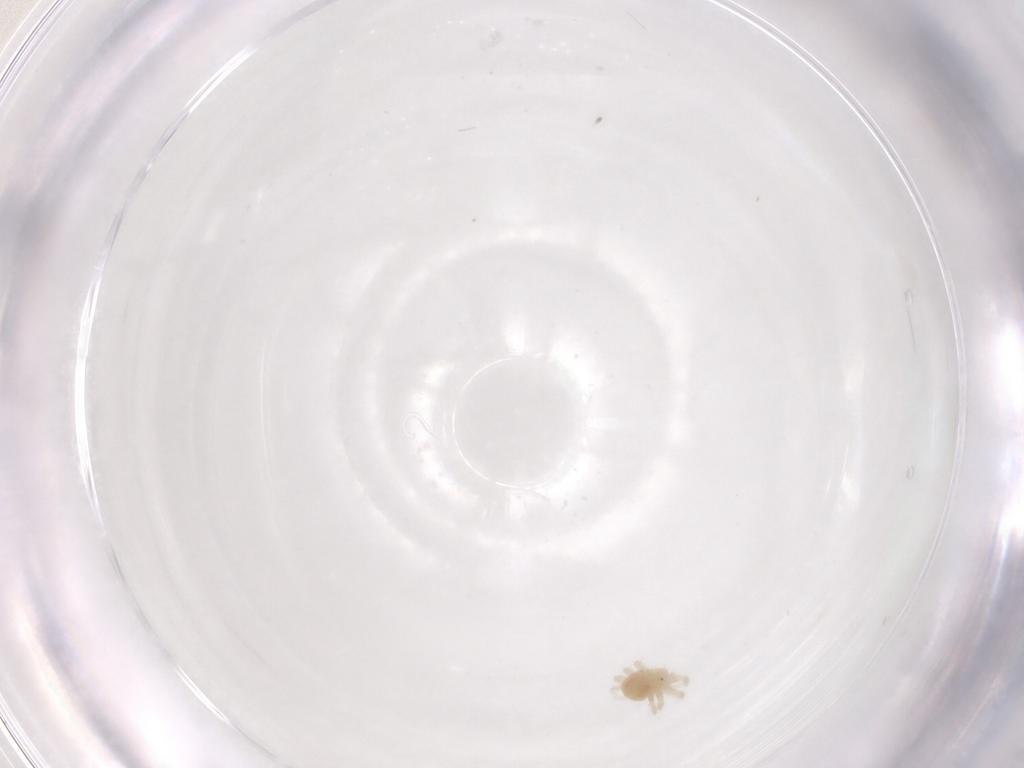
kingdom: Animalia
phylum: Arthropoda
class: Arachnida
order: Trombidiformes
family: Anystidae
